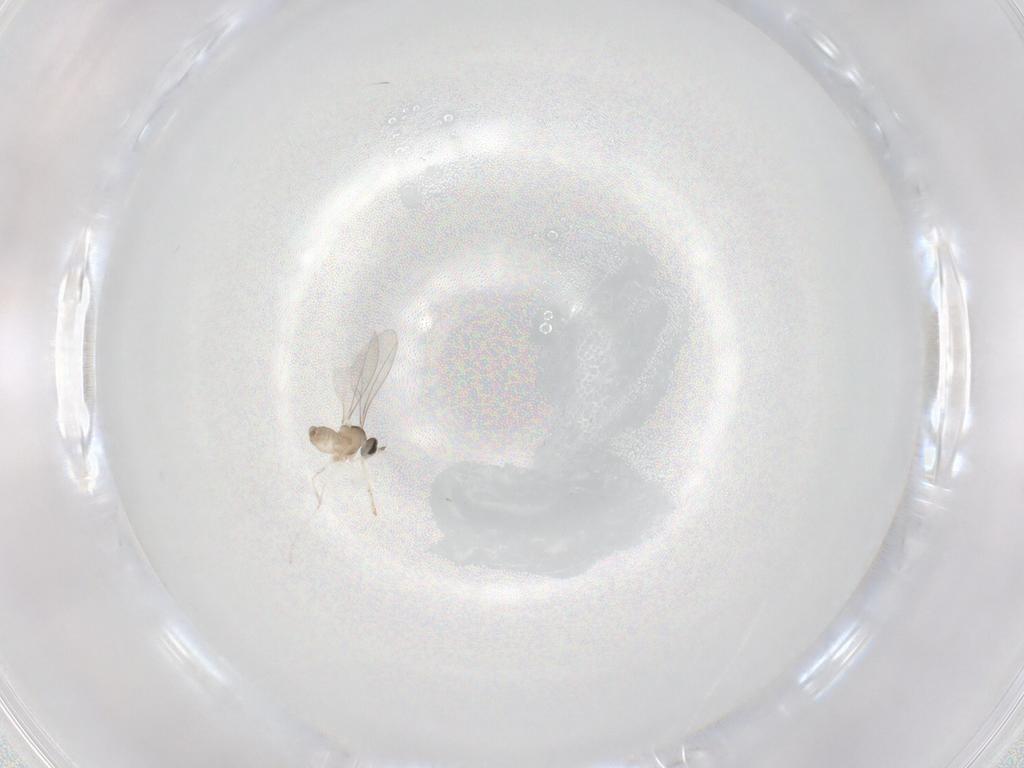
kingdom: Animalia
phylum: Arthropoda
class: Insecta
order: Diptera
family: Cecidomyiidae
